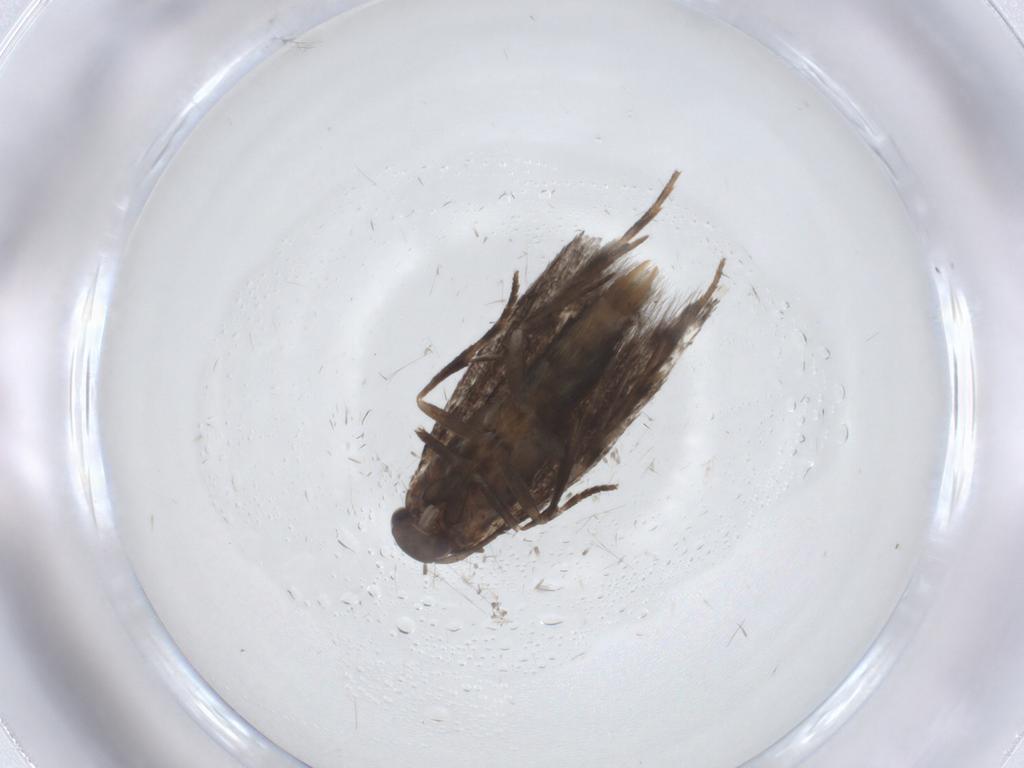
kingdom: Animalia
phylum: Arthropoda
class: Insecta
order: Lepidoptera
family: Elachistidae
